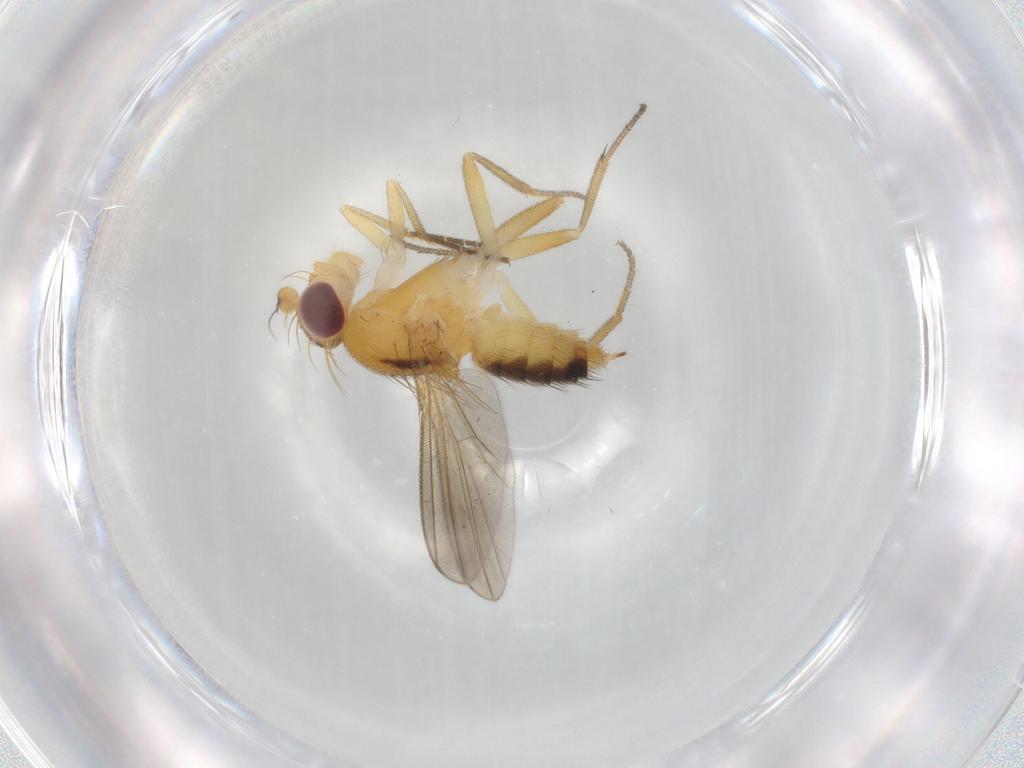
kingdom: Animalia
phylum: Arthropoda
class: Insecta
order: Diptera
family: Clusiidae
